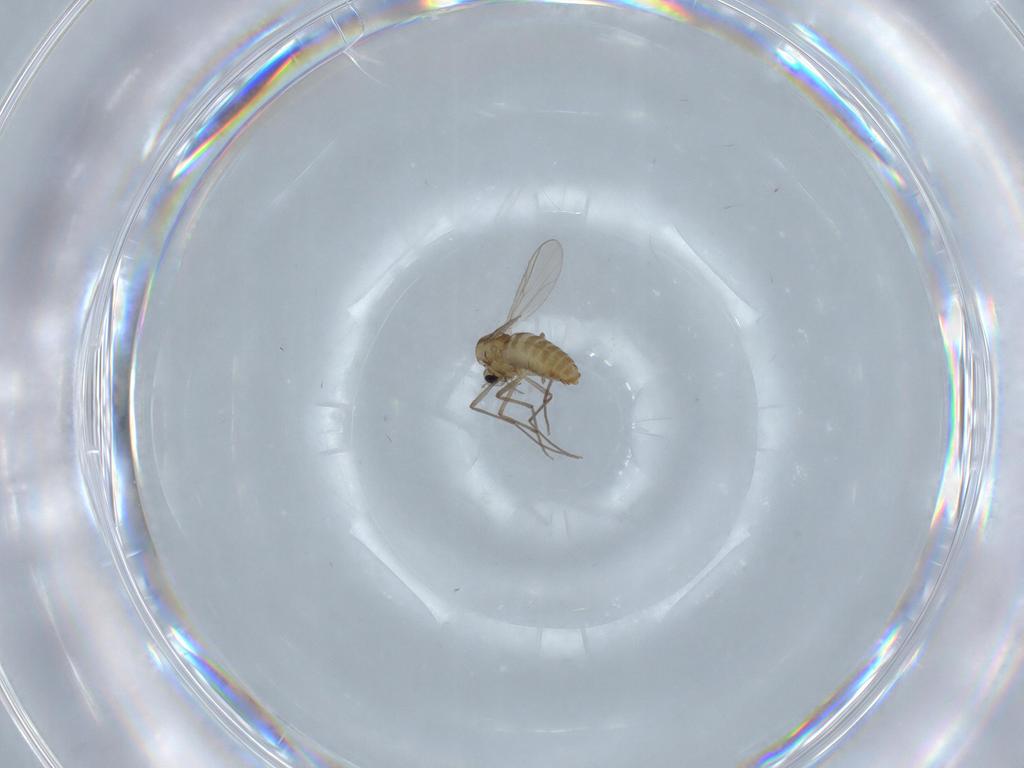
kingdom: Animalia
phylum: Arthropoda
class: Insecta
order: Diptera
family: Chironomidae
